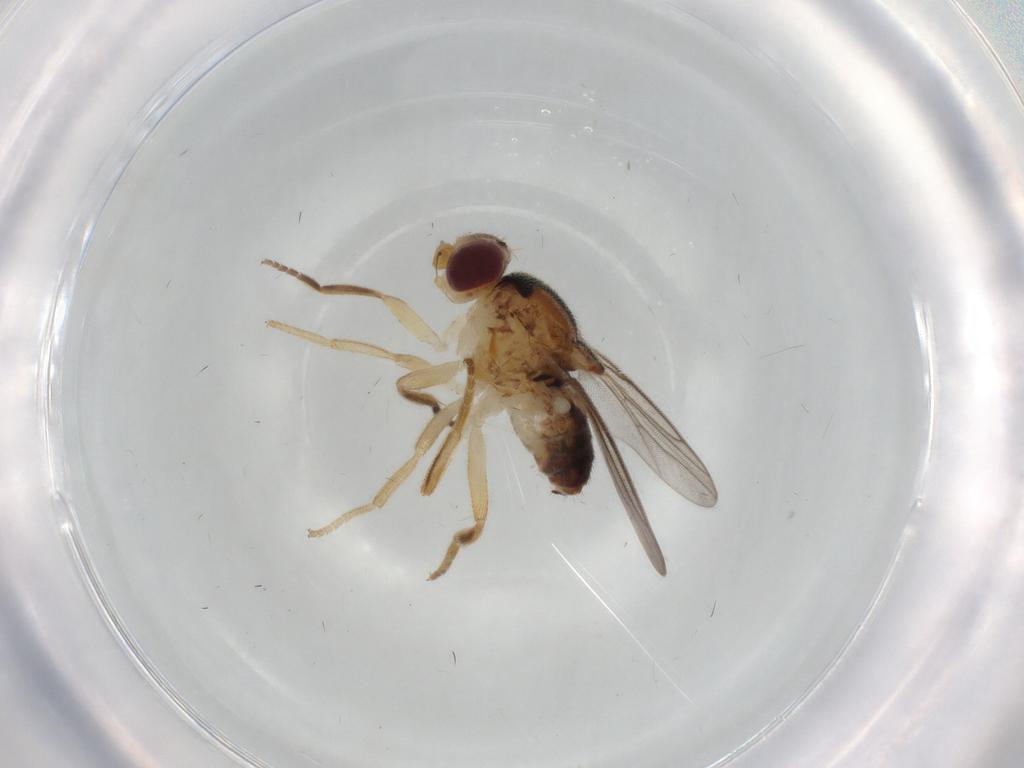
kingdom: Animalia
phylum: Arthropoda
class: Insecta
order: Diptera
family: Chloropidae
